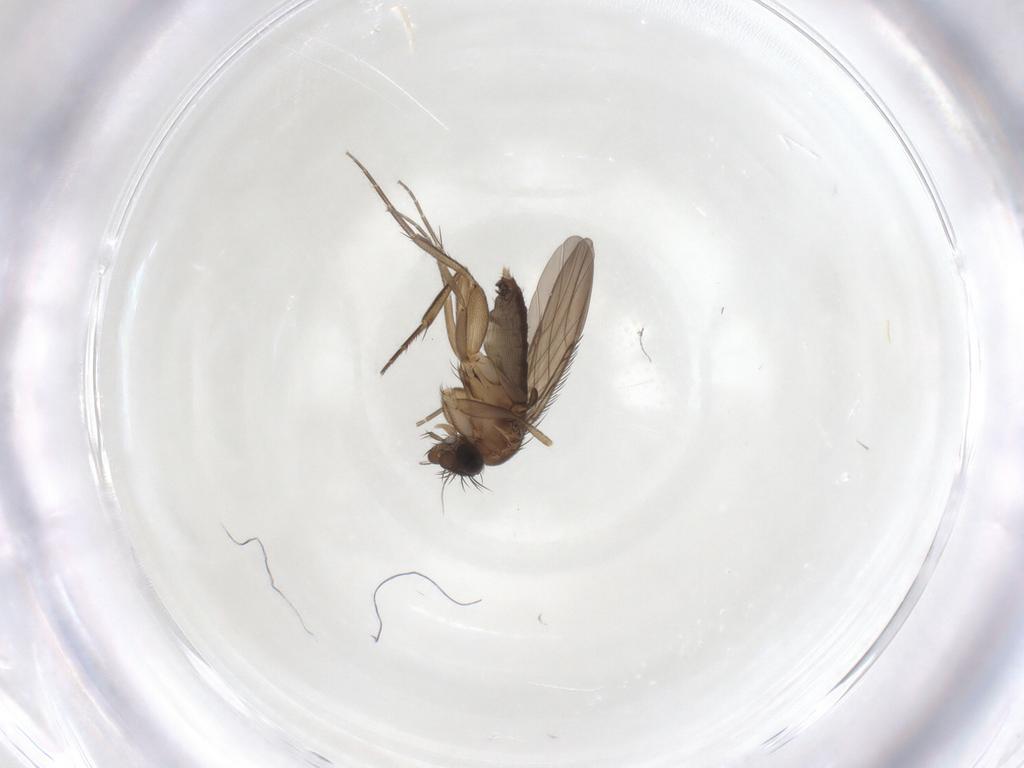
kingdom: Animalia
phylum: Arthropoda
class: Insecta
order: Diptera
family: Phoridae
